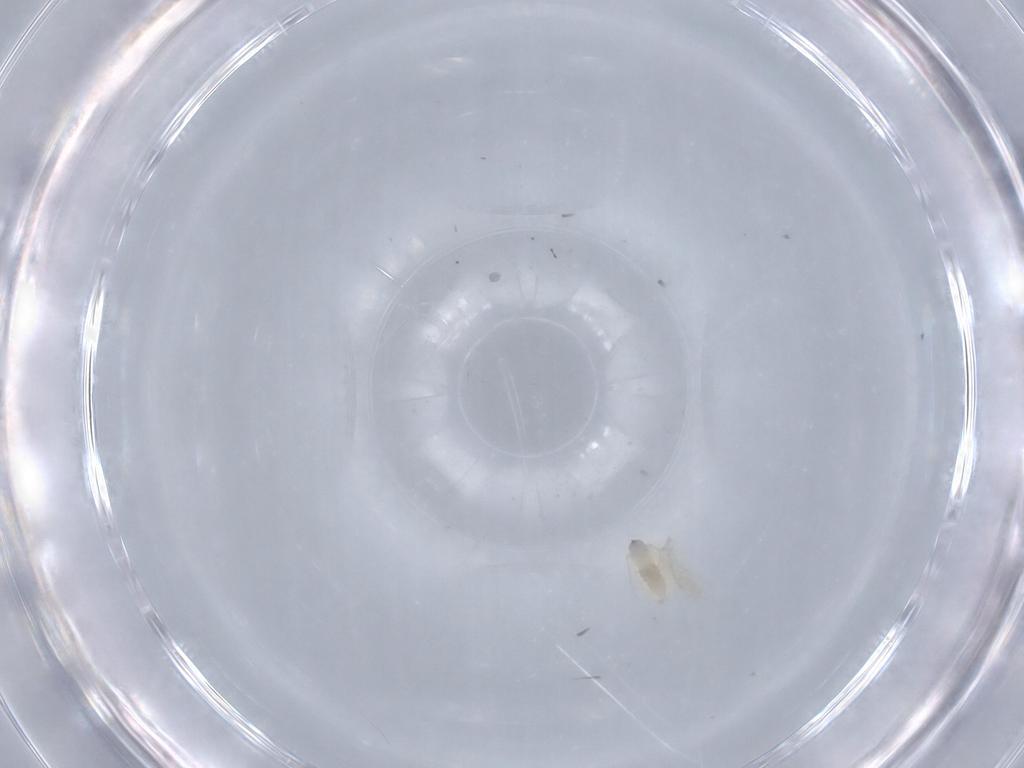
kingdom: Animalia
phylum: Arthropoda
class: Insecta
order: Diptera
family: Cecidomyiidae
